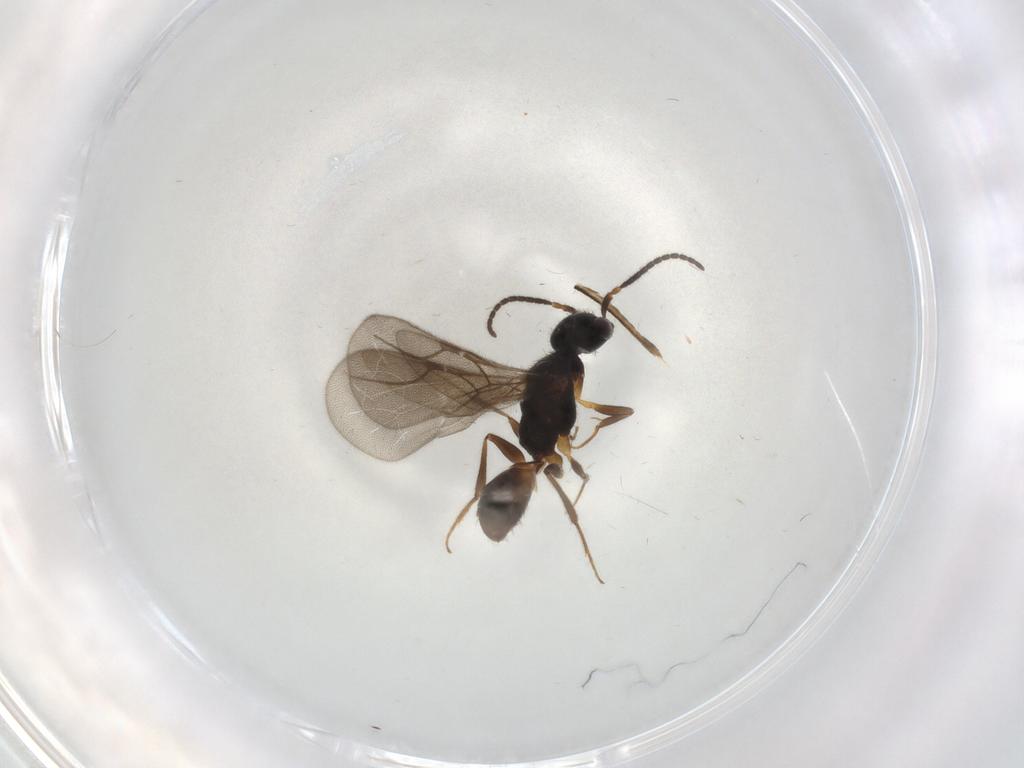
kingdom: Animalia
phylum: Arthropoda
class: Insecta
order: Hymenoptera
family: Bethylidae
